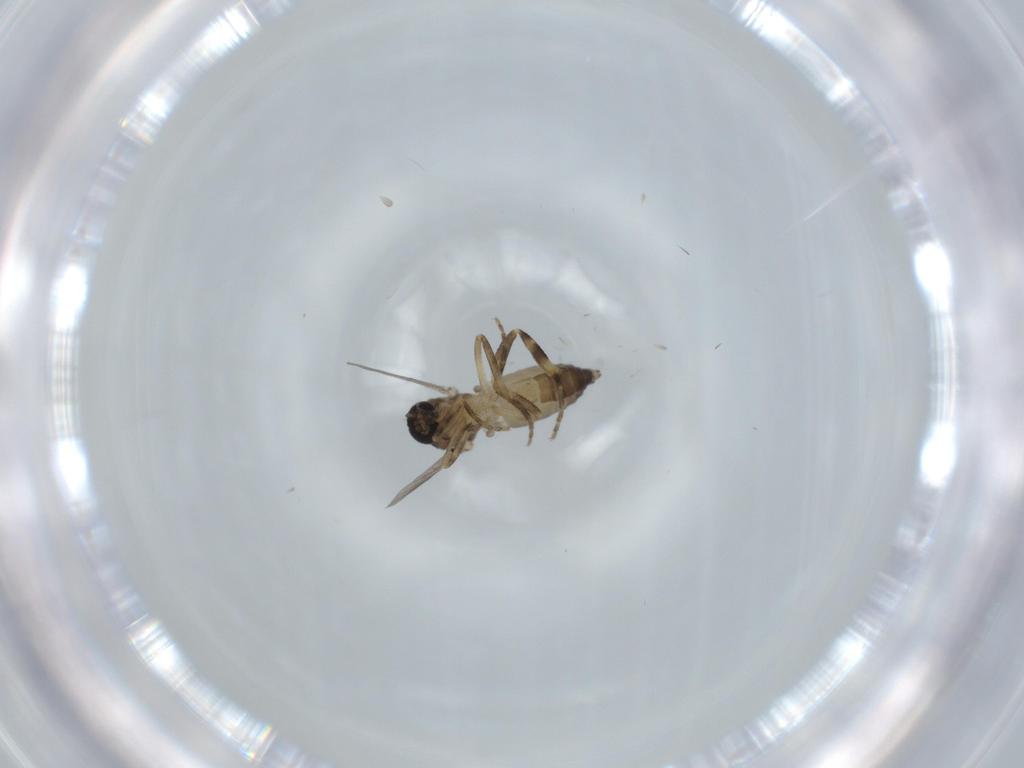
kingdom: Animalia
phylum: Arthropoda
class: Insecta
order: Diptera
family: Ceratopogonidae
